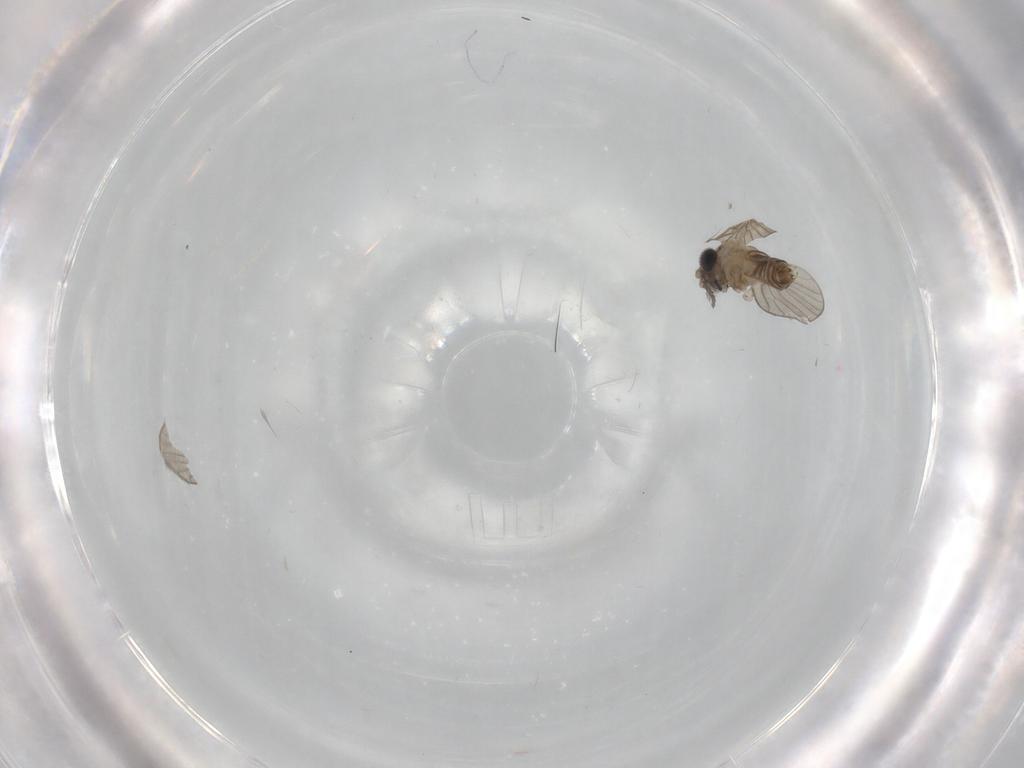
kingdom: Animalia
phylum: Arthropoda
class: Insecta
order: Diptera
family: Psychodidae
